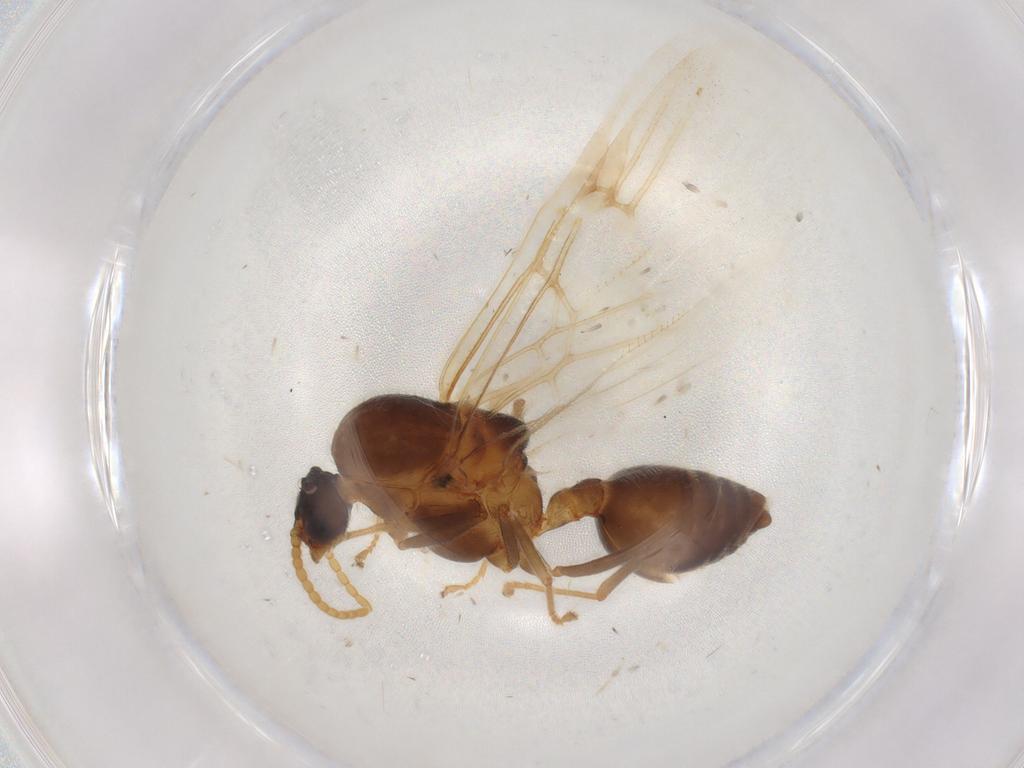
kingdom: Animalia
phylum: Arthropoda
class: Insecta
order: Hymenoptera
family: Formicidae
